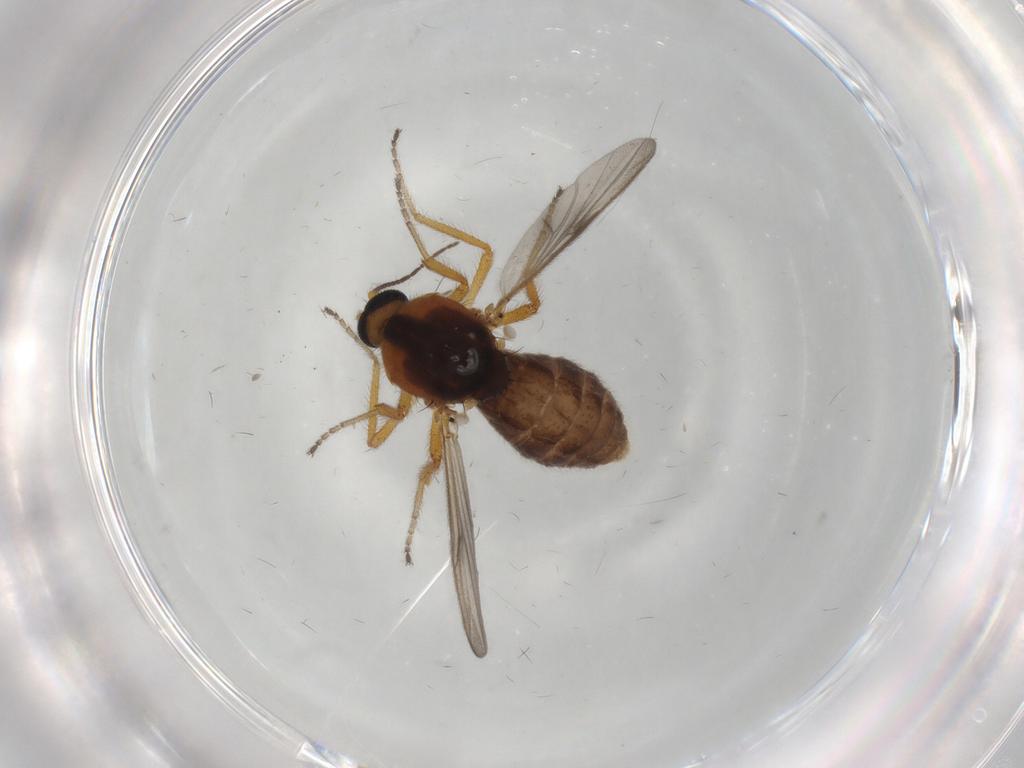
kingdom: Animalia
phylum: Arthropoda
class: Insecta
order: Diptera
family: Ceratopogonidae
